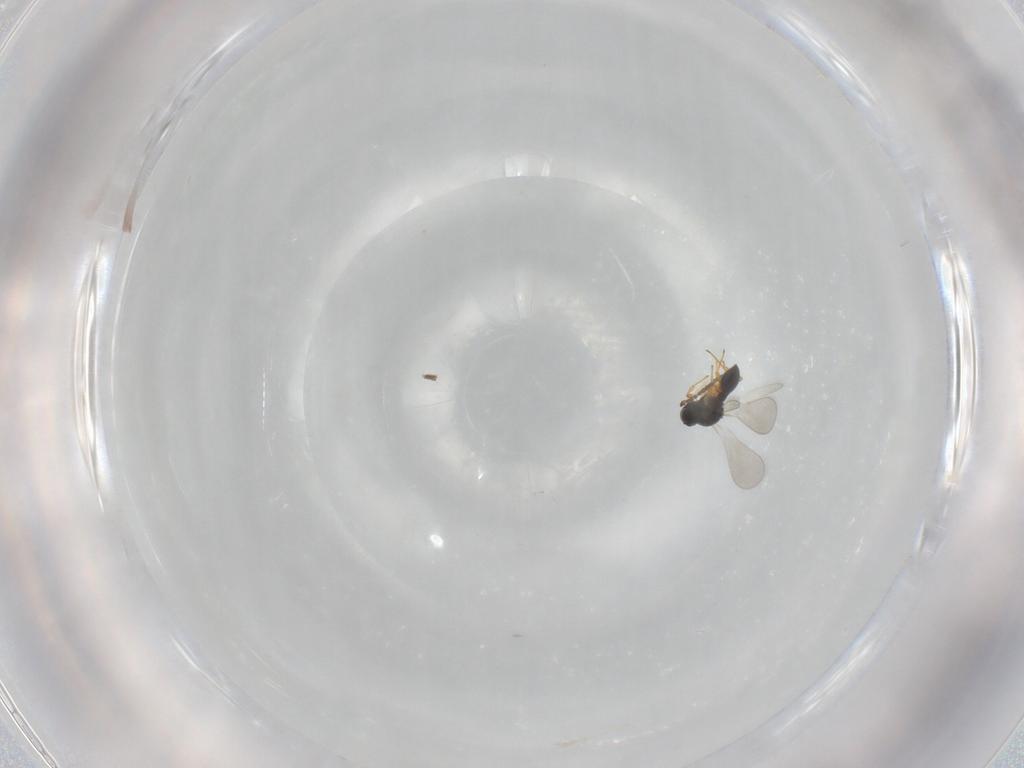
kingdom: Animalia
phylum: Arthropoda
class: Insecta
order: Hymenoptera
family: Platygastridae
